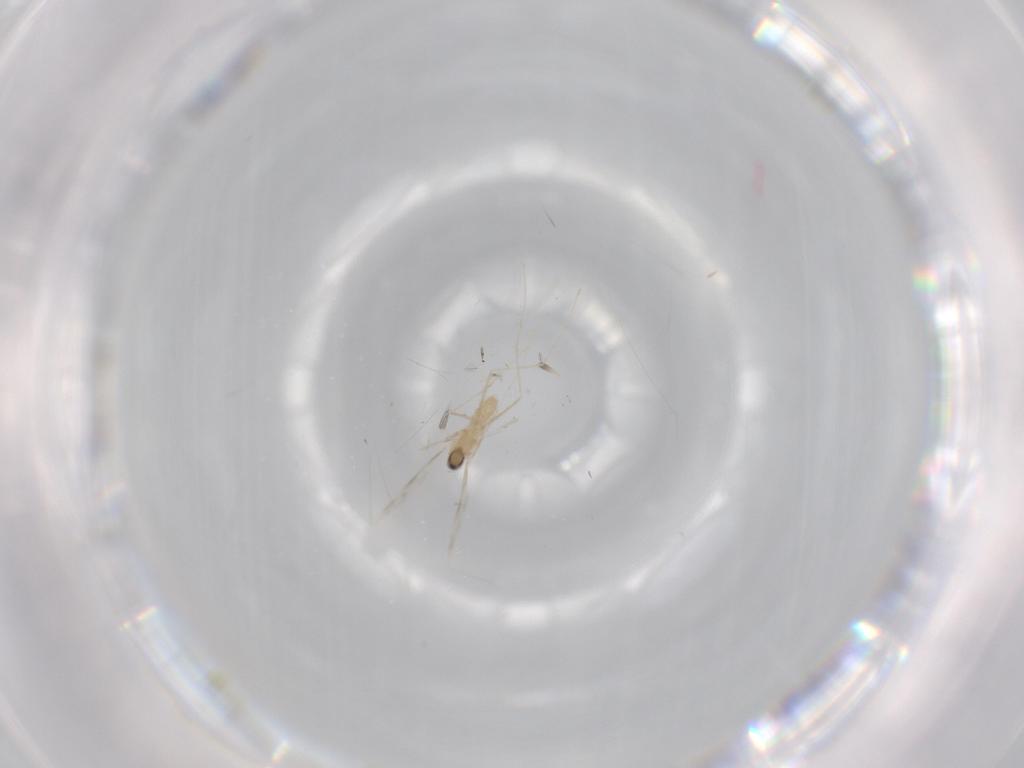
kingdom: Animalia
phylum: Arthropoda
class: Insecta
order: Diptera
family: Cecidomyiidae
